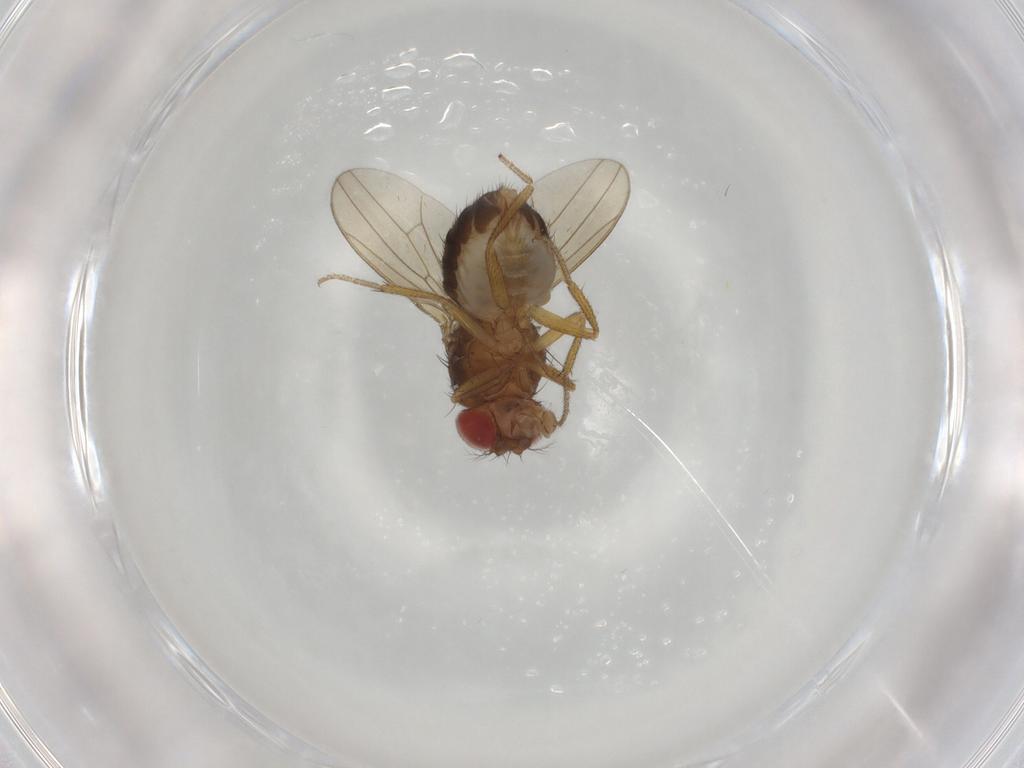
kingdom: Animalia
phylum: Arthropoda
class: Insecta
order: Diptera
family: Drosophilidae
